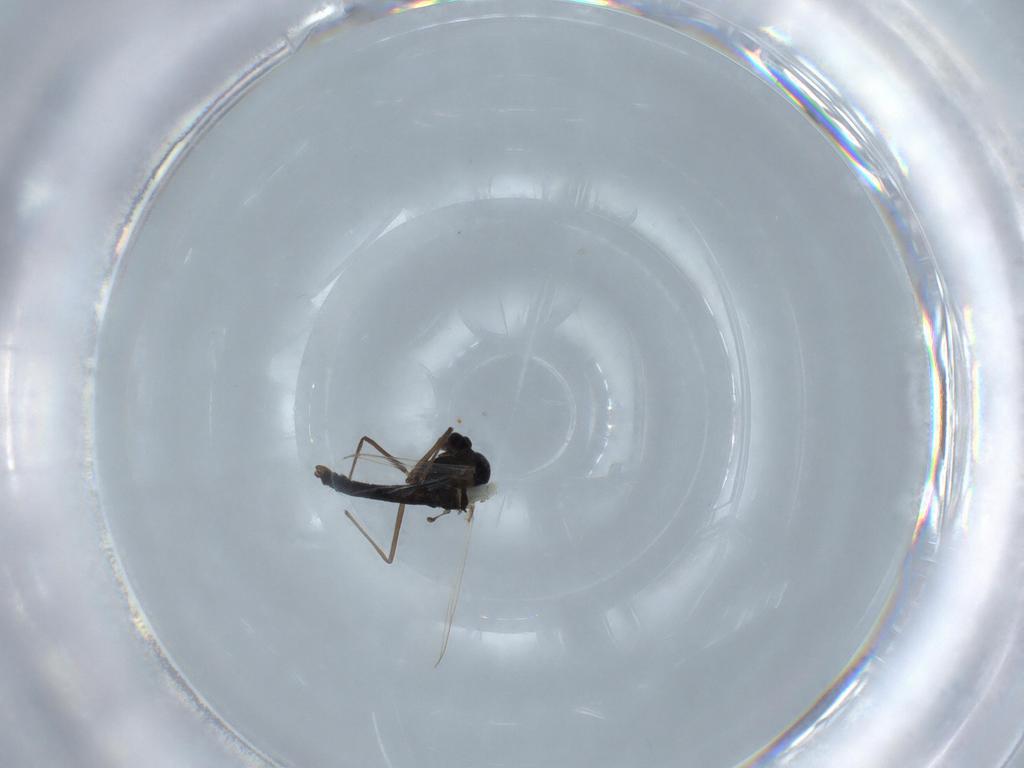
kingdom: Animalia
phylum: Arthropoda
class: Insecta
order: Diptera
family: Chironomidae
